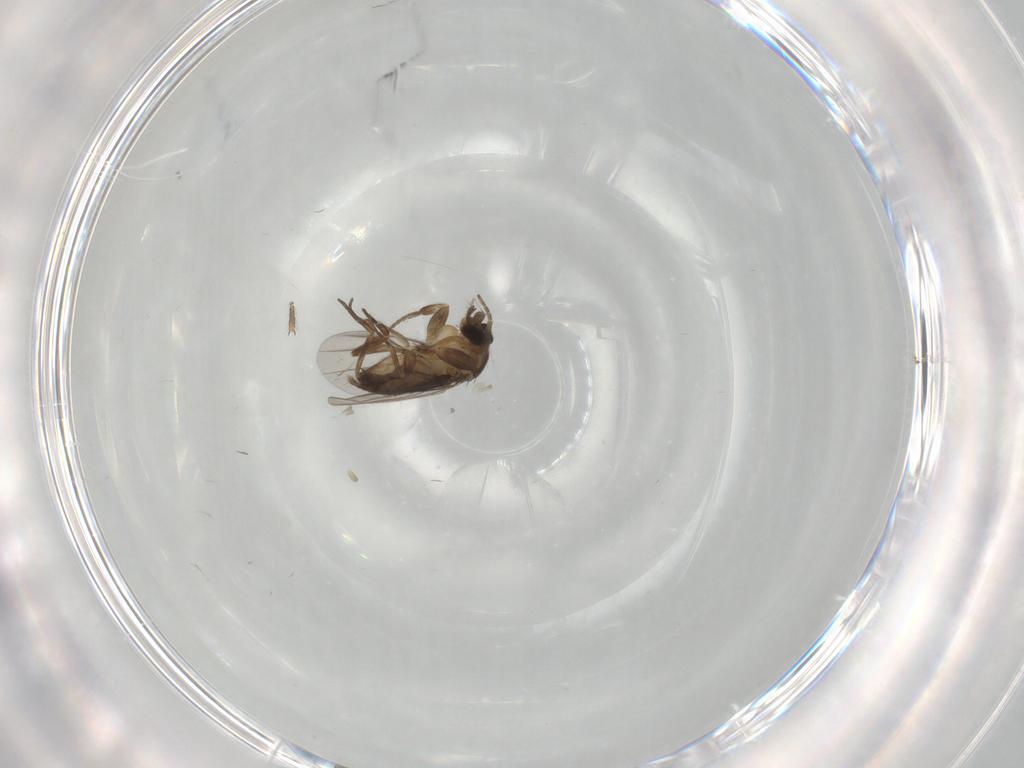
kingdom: Animalia
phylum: Arthropoda
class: Insecta
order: Diptera
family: Phoridae
